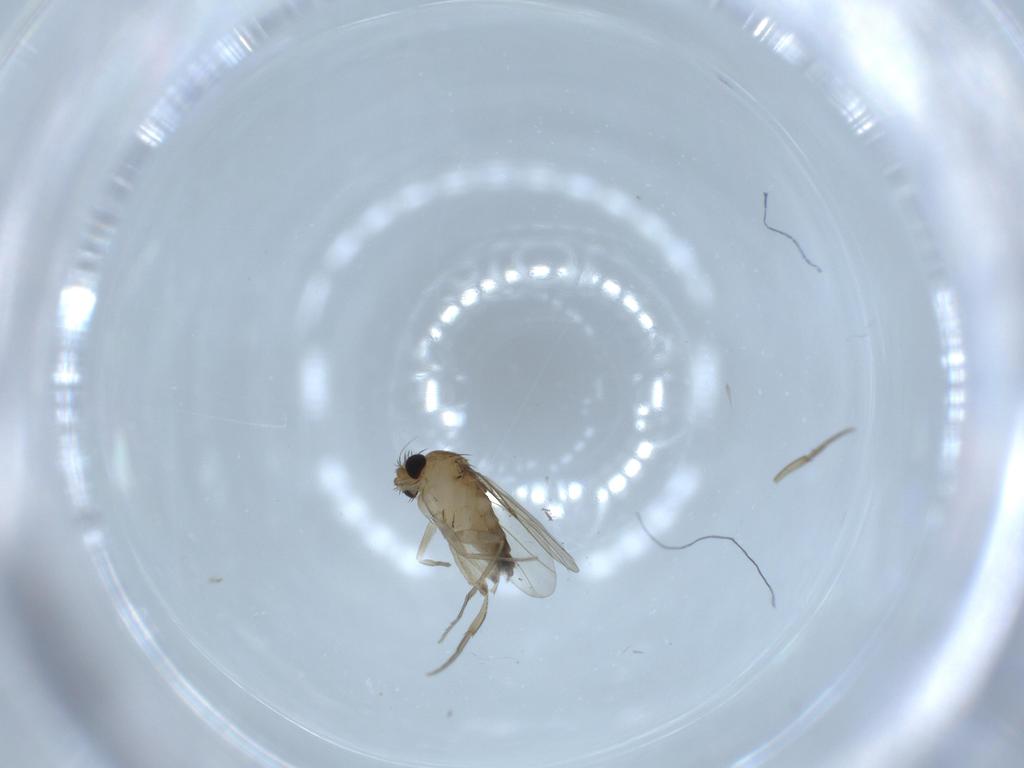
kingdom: Animalia
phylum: Arthropoda
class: Insecta
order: Diptera
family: Phoridae
